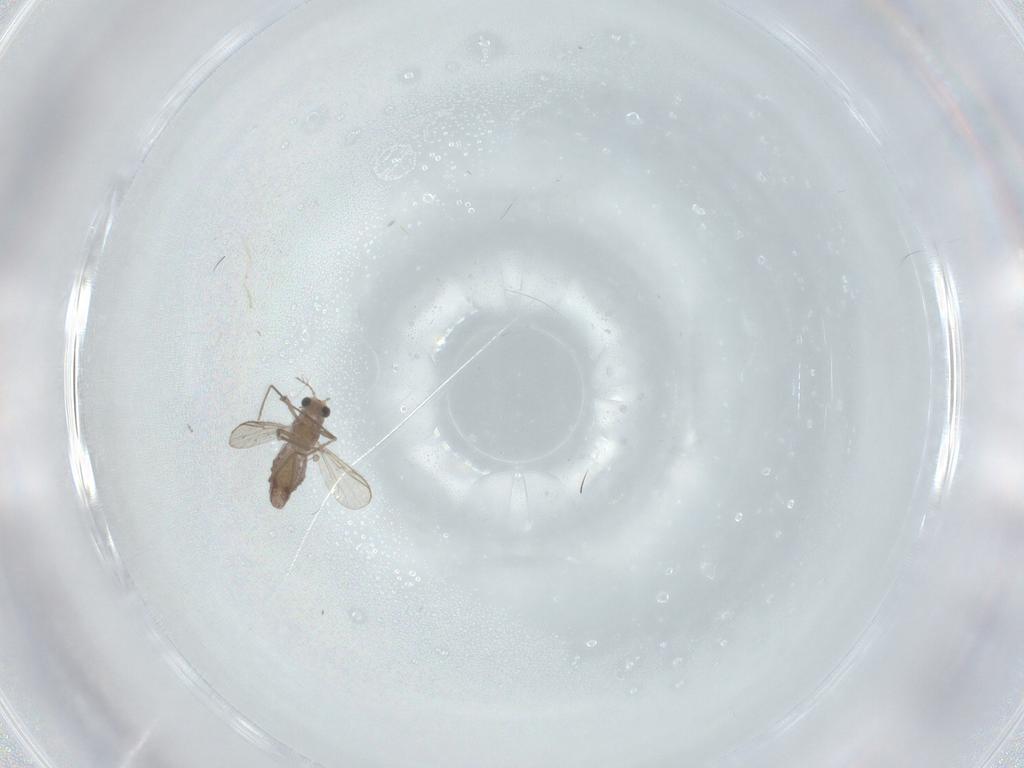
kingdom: Animalia
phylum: Arthropoda
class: Insecta
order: Diptera
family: Chironomidae
